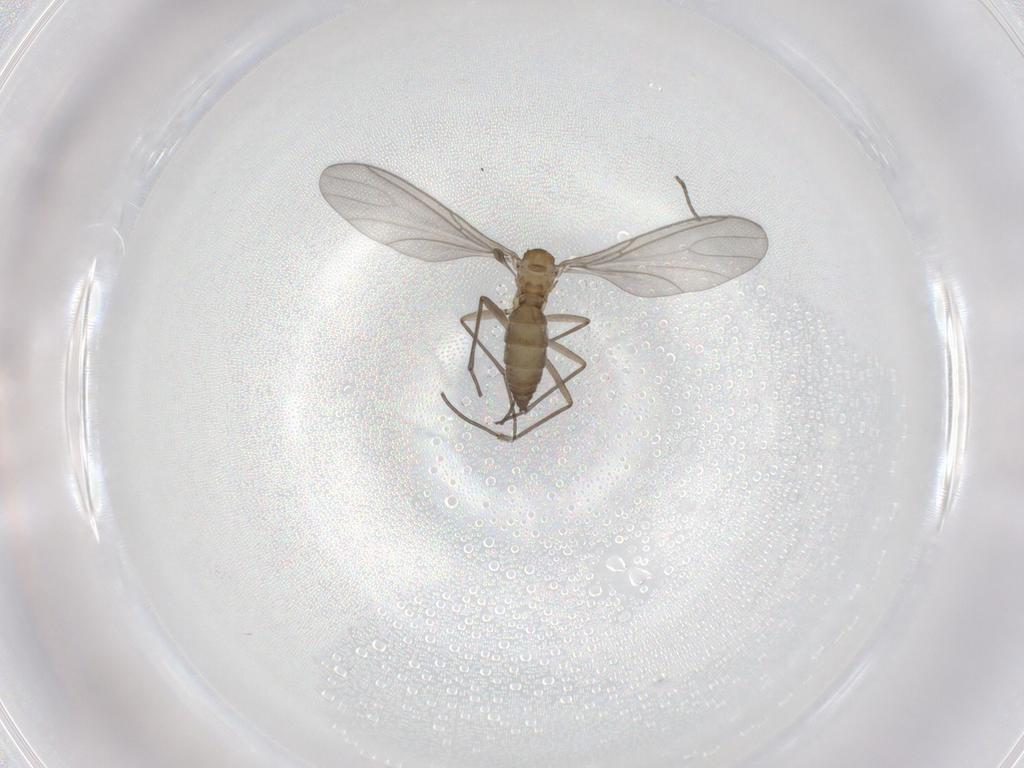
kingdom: Animalia
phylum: Arthropoda
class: Insecta
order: Diptera
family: Sciaridae
